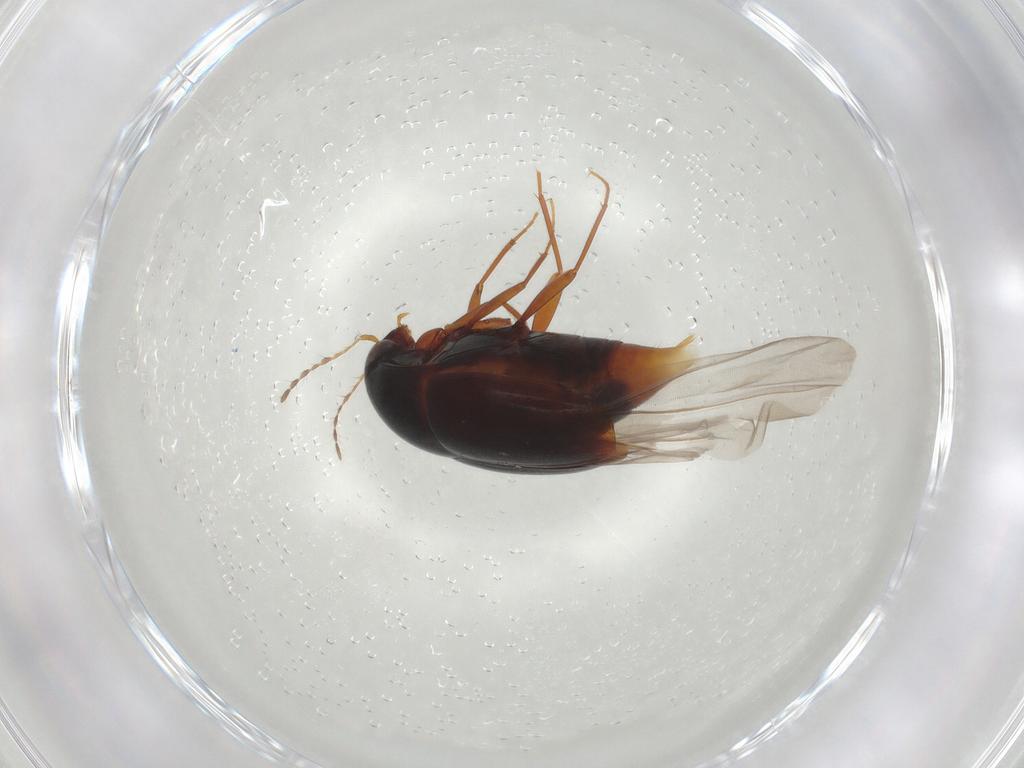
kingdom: Animalia
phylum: Arthropoda
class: Insecta
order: Coleoptera
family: Staphylinidae
